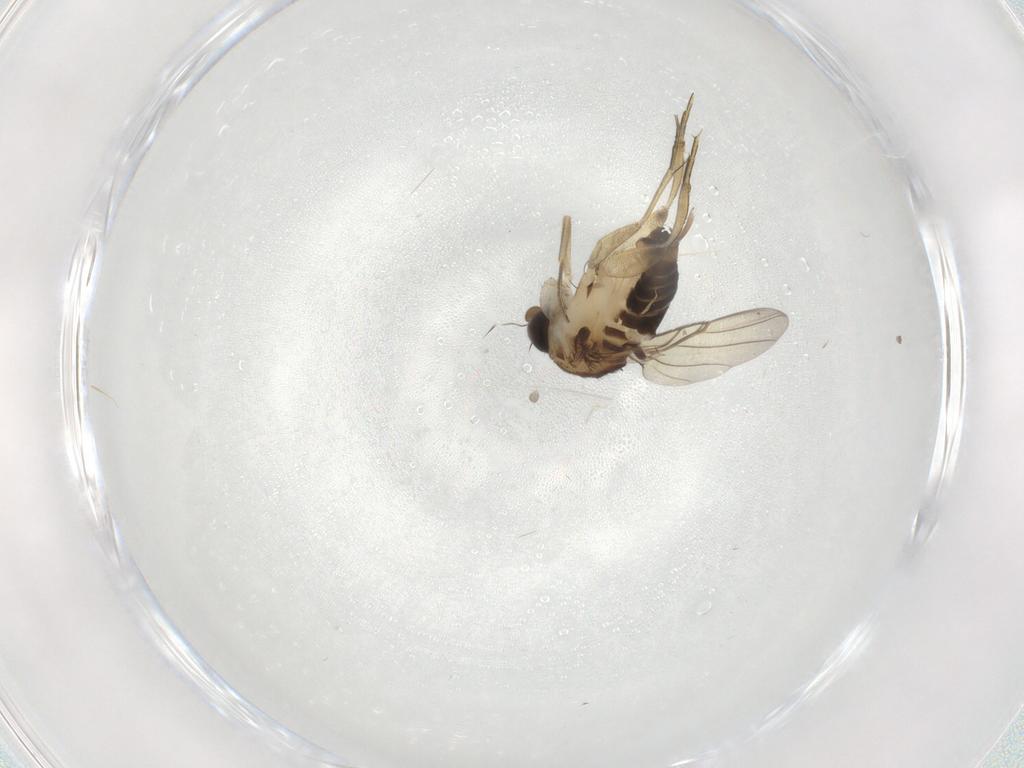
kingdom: Animalia
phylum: Arthropoda
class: Insecta
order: Diptera
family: Phoridae
